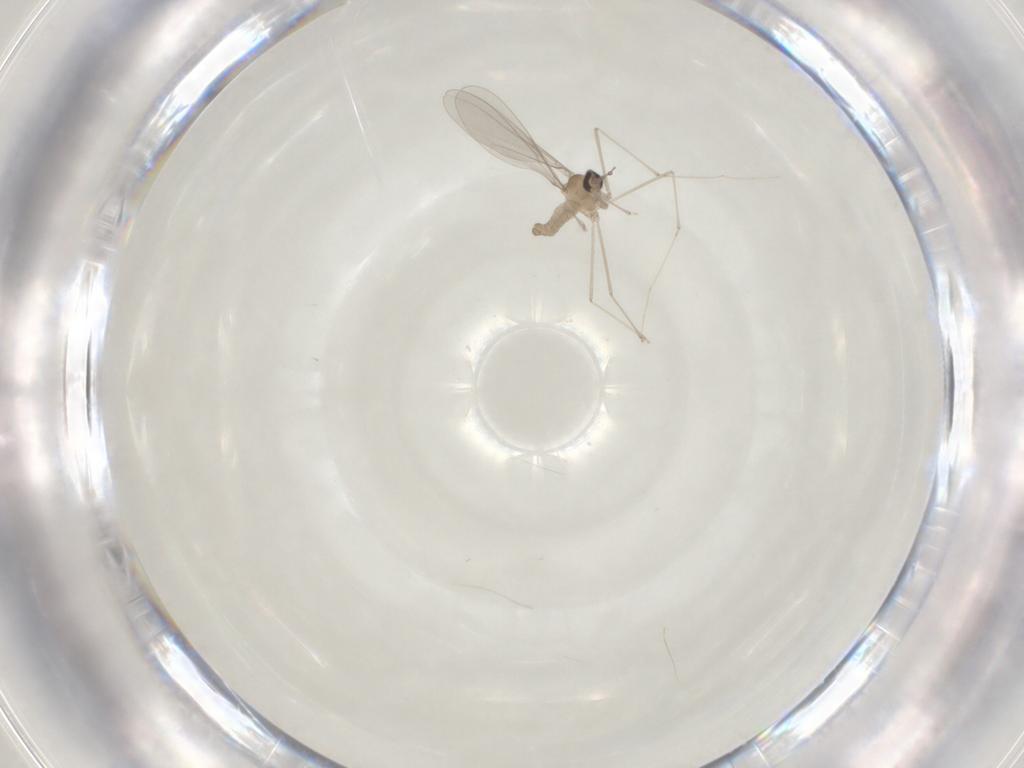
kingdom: Animalia
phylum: Arthropoda
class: Insecta
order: Diptera
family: Cecidomyiidae
